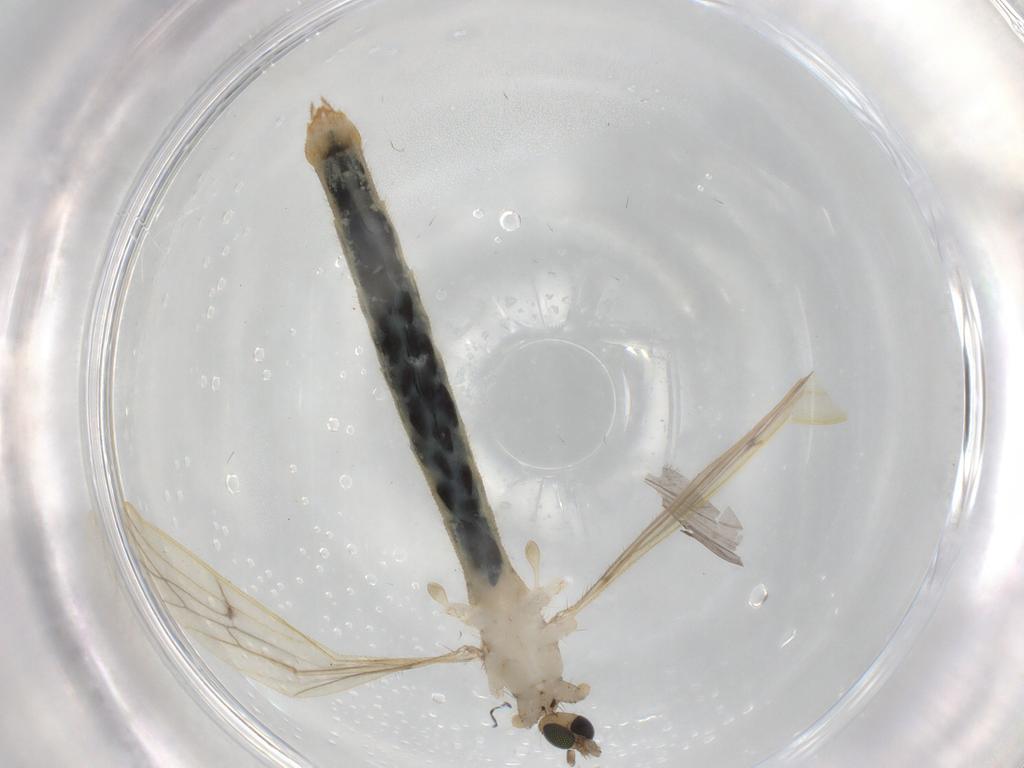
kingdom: Animalia
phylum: Arthropoda
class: Insecta
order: Diptera
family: Limoniidae
